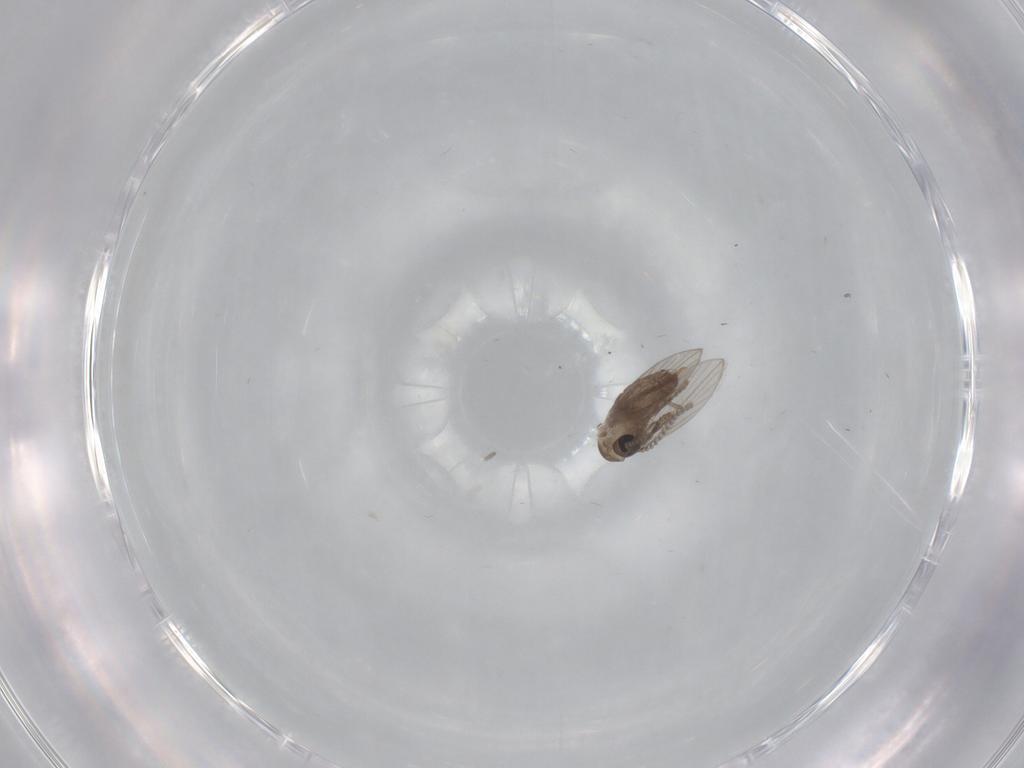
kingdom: Animalia
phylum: Arthropoda
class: Insecta
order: Diptera
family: Psychodidae
